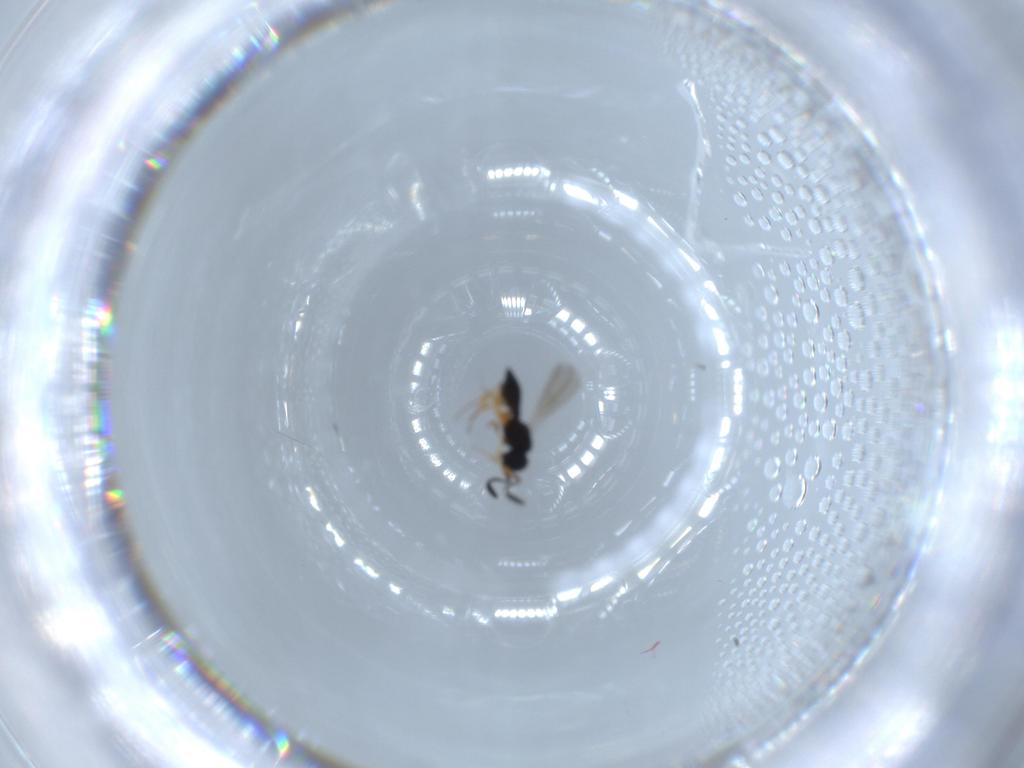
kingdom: Animalia
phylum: Arthropoda
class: Insecta
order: Hymenoptera
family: Scelionidae
